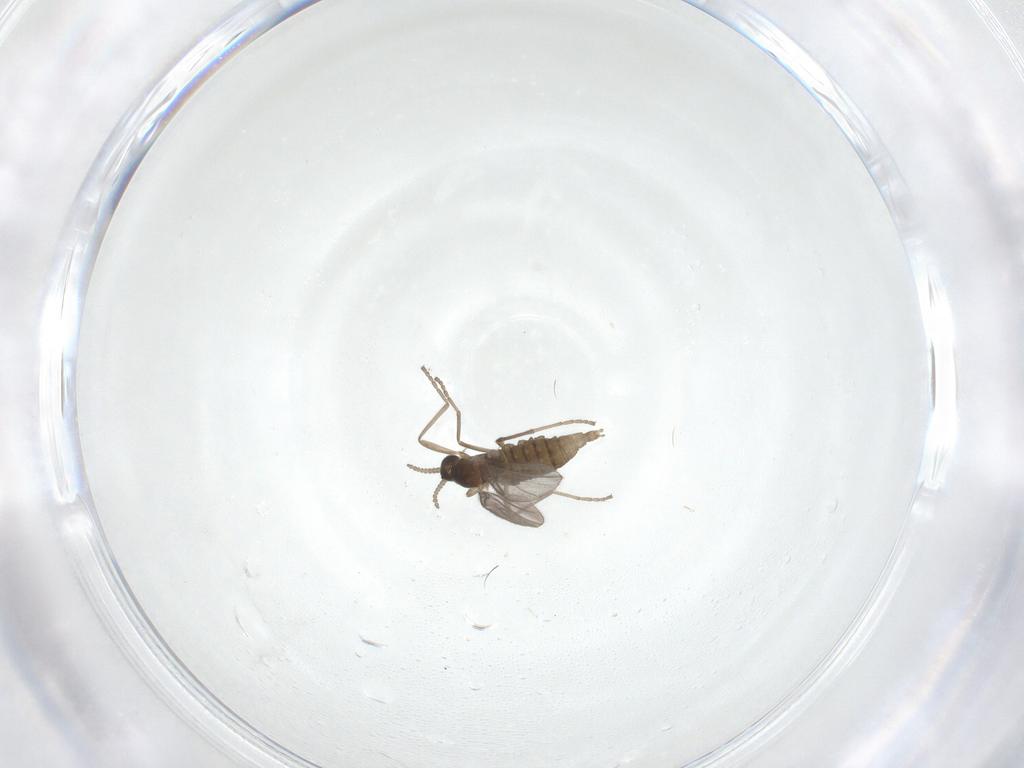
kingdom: Animalia
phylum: Arthropoda
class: Insecta
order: Diptera
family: Cecidomyiidae
